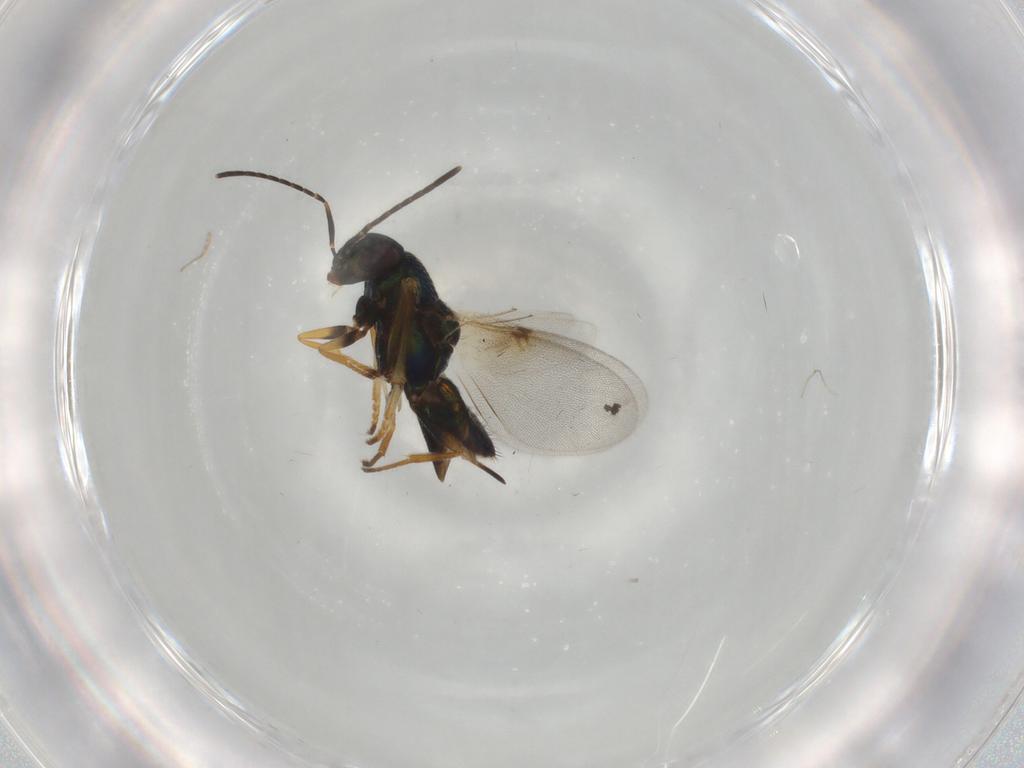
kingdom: Animalia
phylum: Arthropoda
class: Insecta
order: Hymenoptera
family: Encyrtidae
